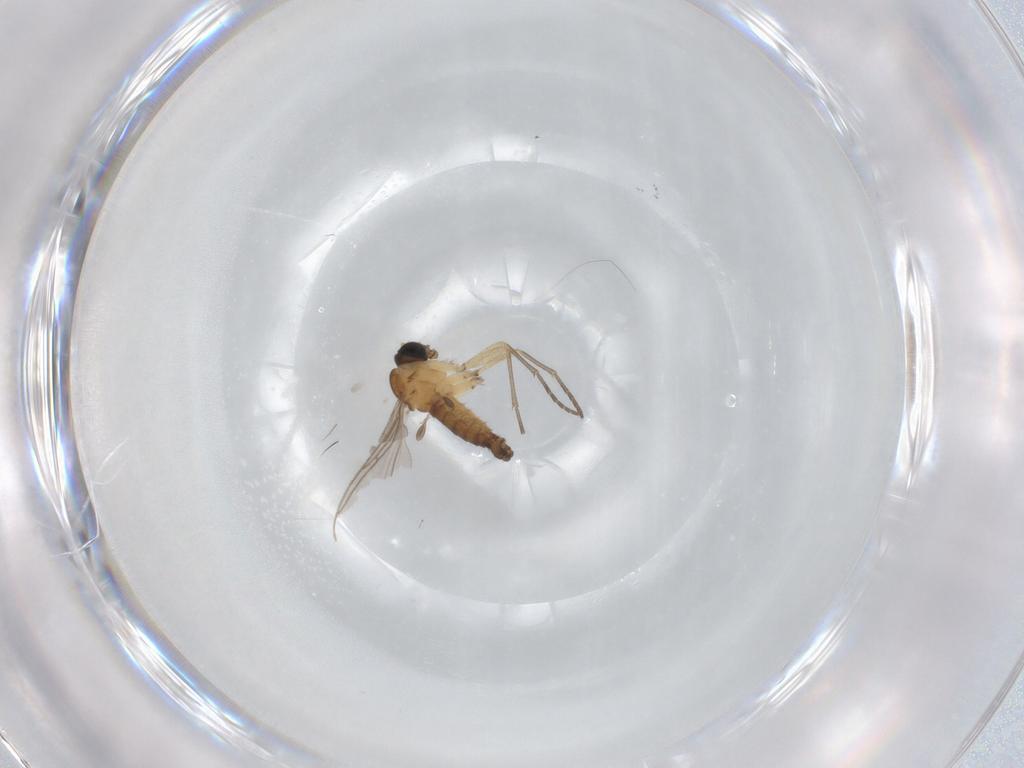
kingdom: Animalia
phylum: Arthropoda
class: Insecta
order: Diptera
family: Sciaridae
